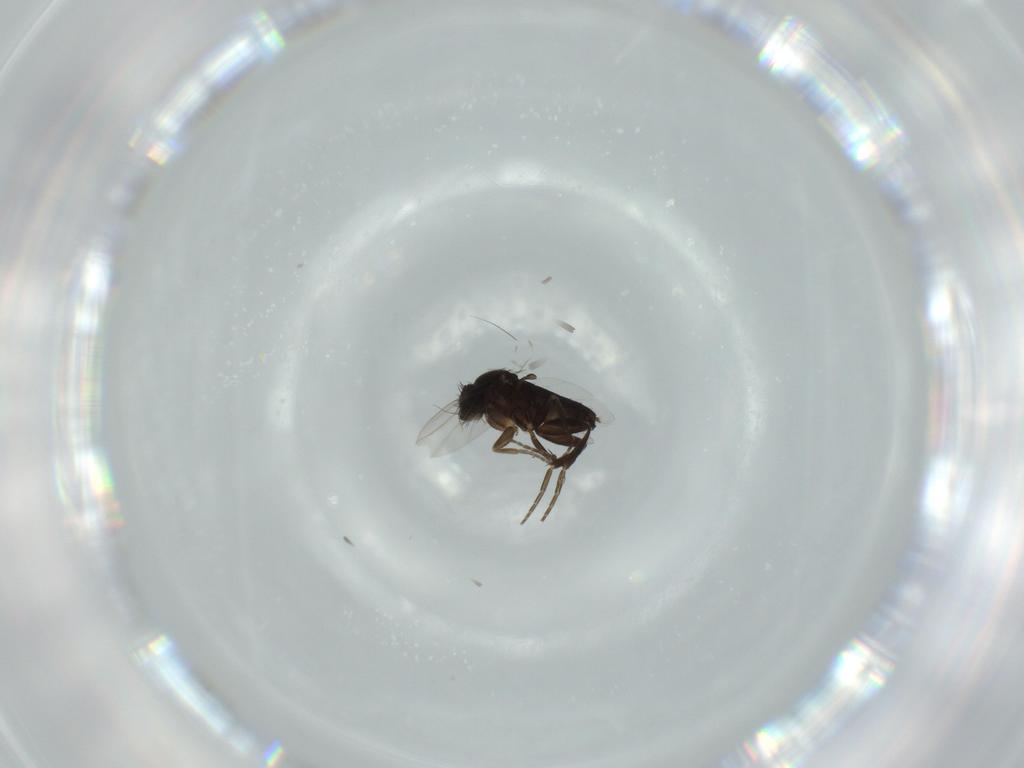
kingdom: Animalia
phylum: Arthropoda
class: Insecta
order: Diptera
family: Phoridae
